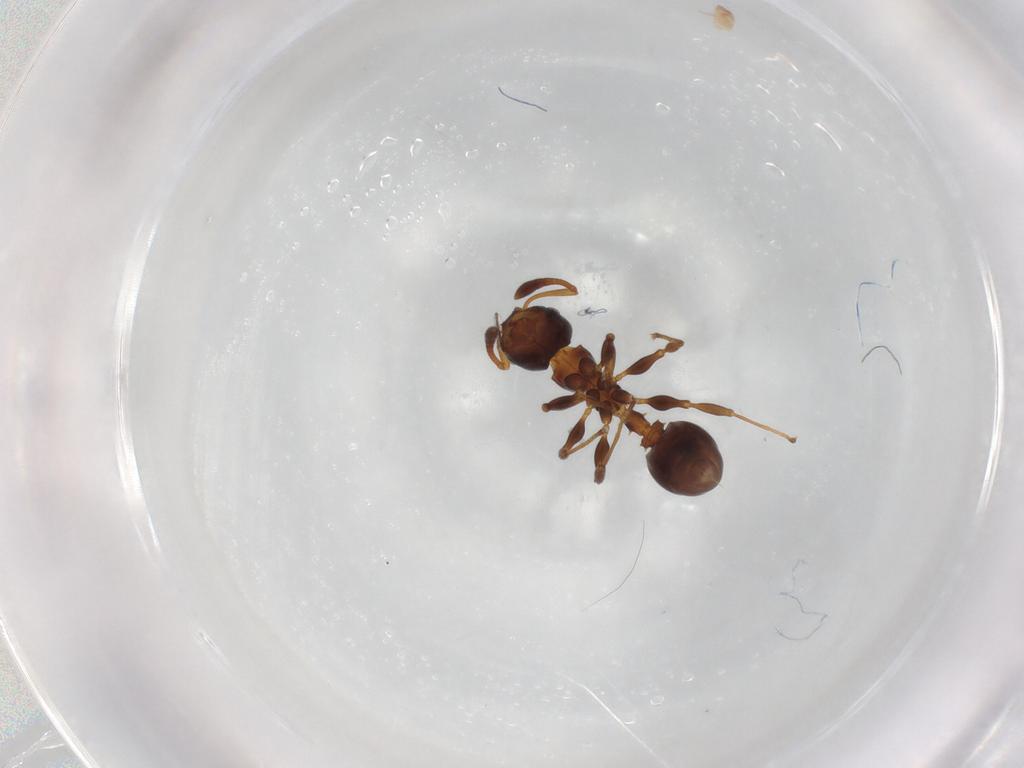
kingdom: Animalia
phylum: Arthropoda
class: Insecta
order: Hymenoptera
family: Formicidae
